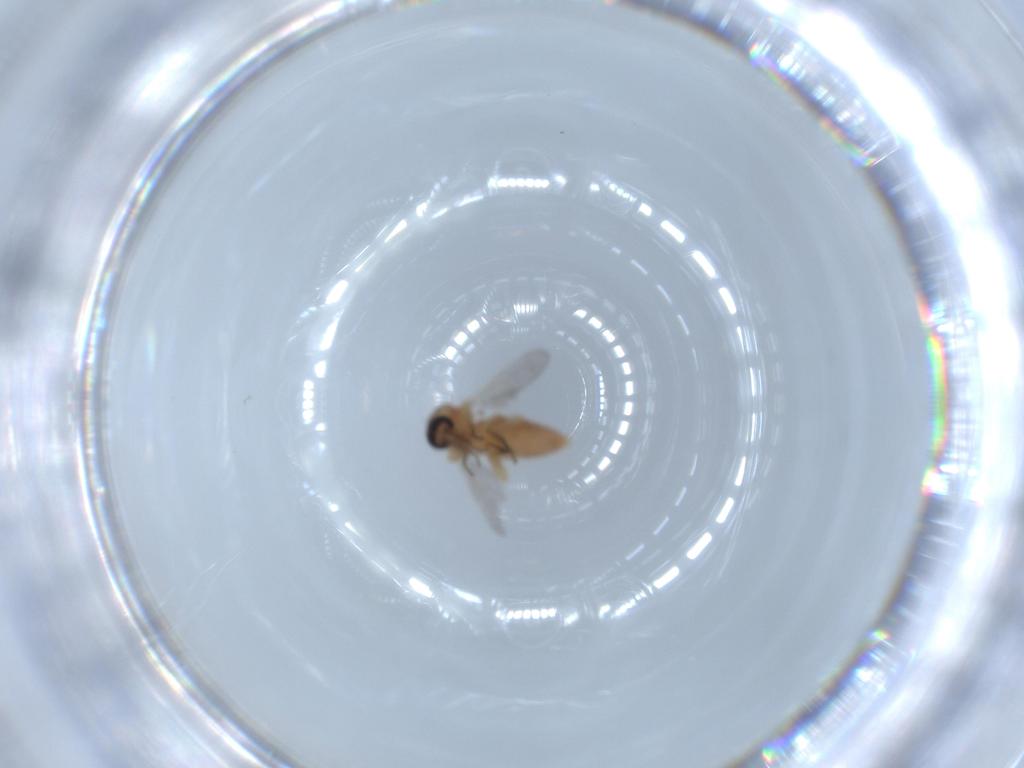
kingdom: Animalia
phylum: Arthropoda
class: Insecta
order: Diptera
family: Ceratopogonidae
